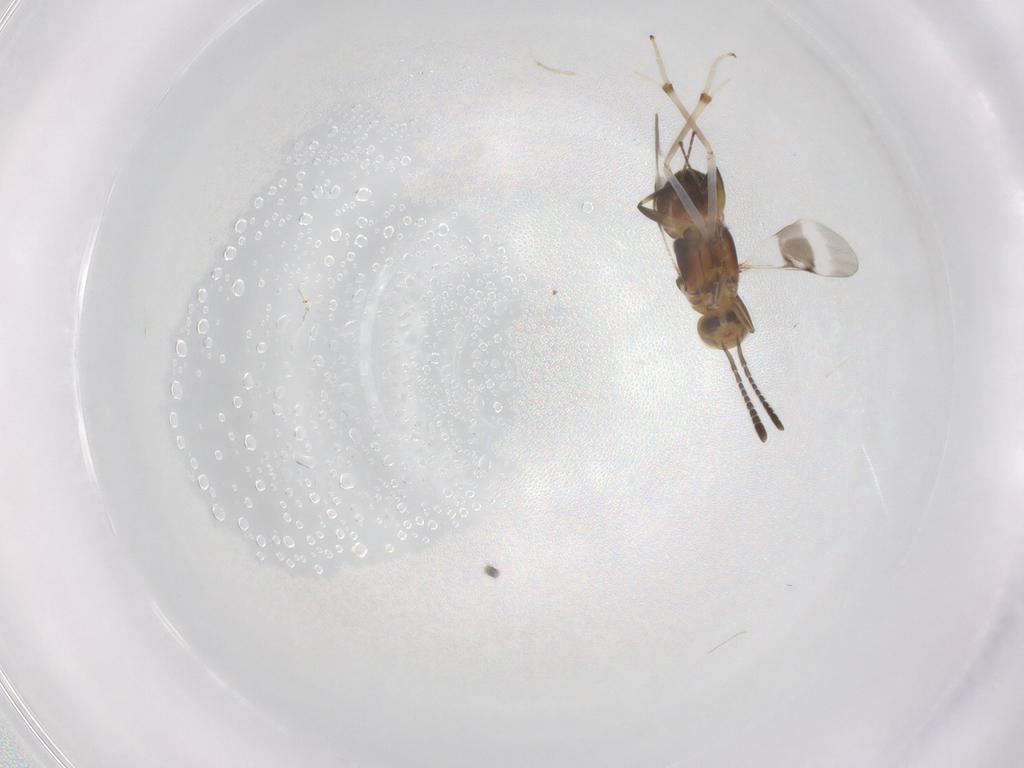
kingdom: Animalia
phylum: Arthropoda
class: Insecta
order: Hymenoptera
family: Encyrtidae
